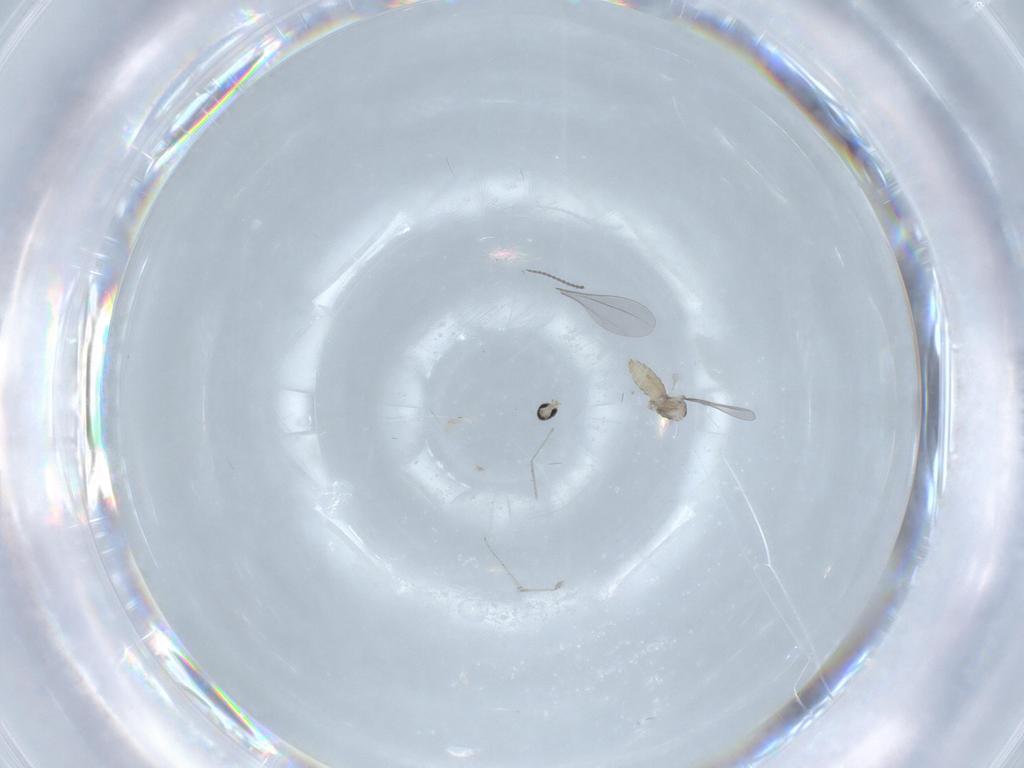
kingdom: Animalia
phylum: Arthropoda
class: Insecta
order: Diptera
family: Cecidomyiidae
